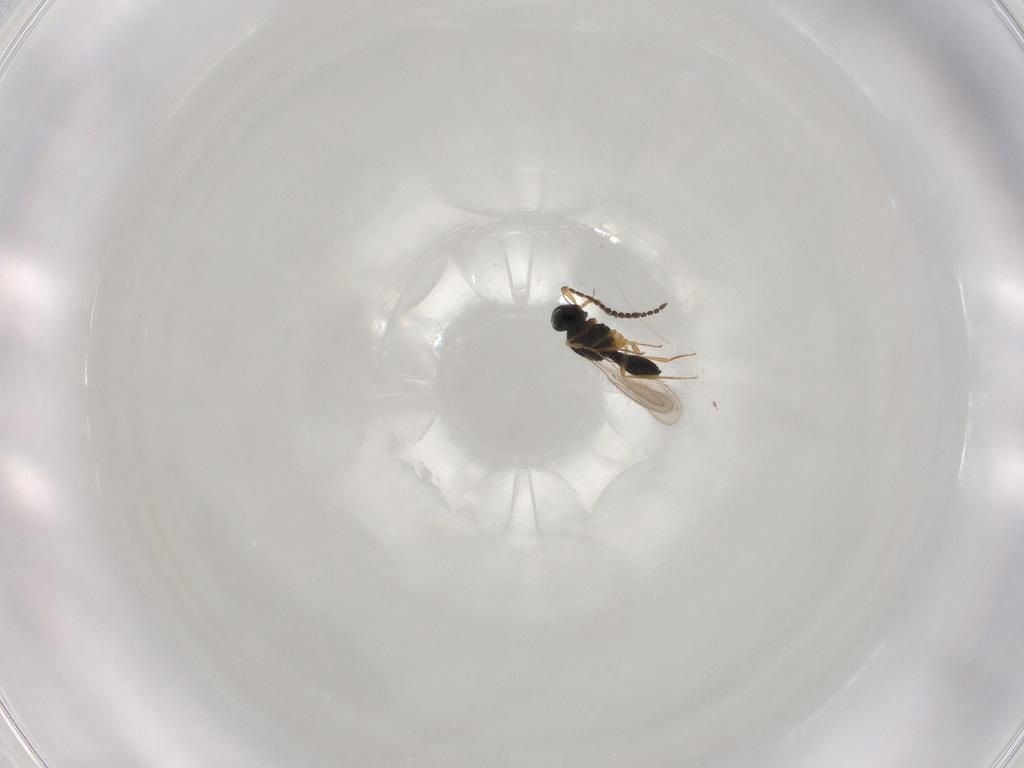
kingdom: Animalia
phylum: Arthropoda
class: Insecta
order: Hymenoptera
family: Scelionidae
